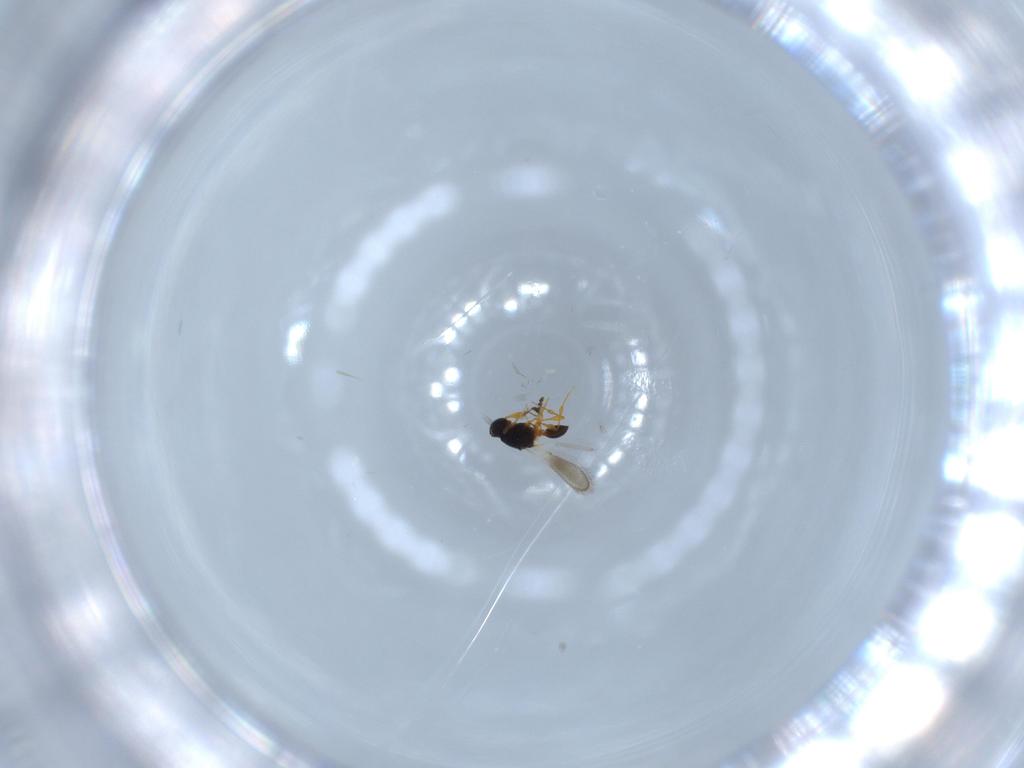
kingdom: Animalia
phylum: Arthropoda
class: Insecta
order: Hymenoptera
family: Platygastridae
